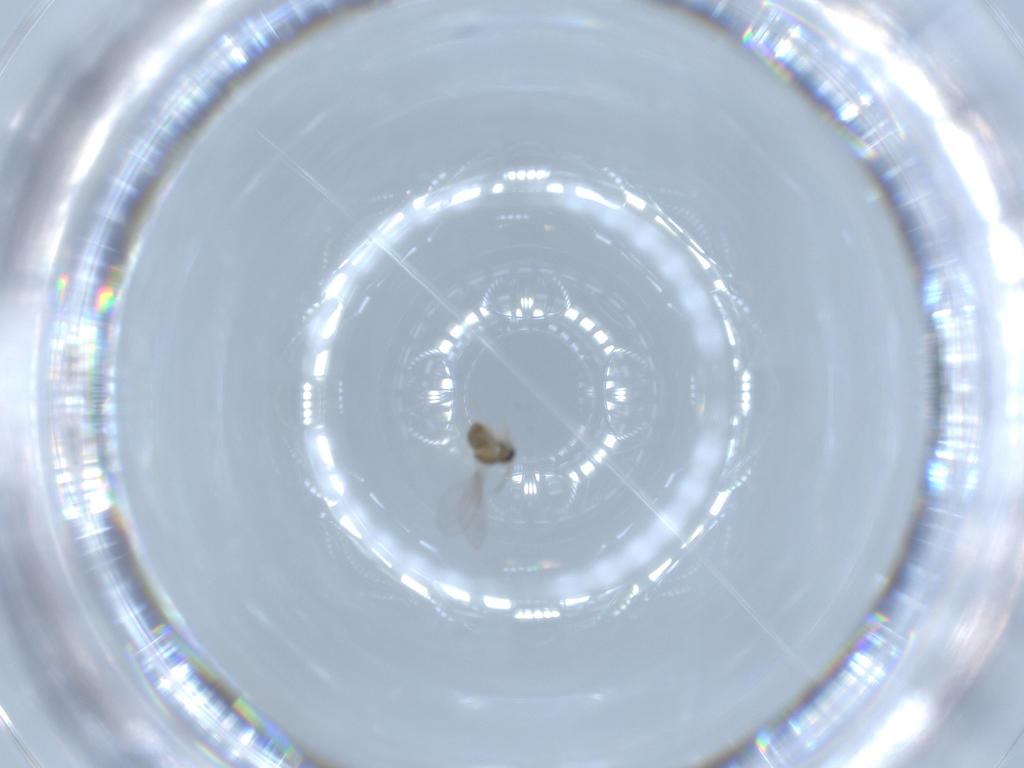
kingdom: Animalia
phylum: Arthropoda
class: Insecta
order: Diptera
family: Cecidomyiidae
